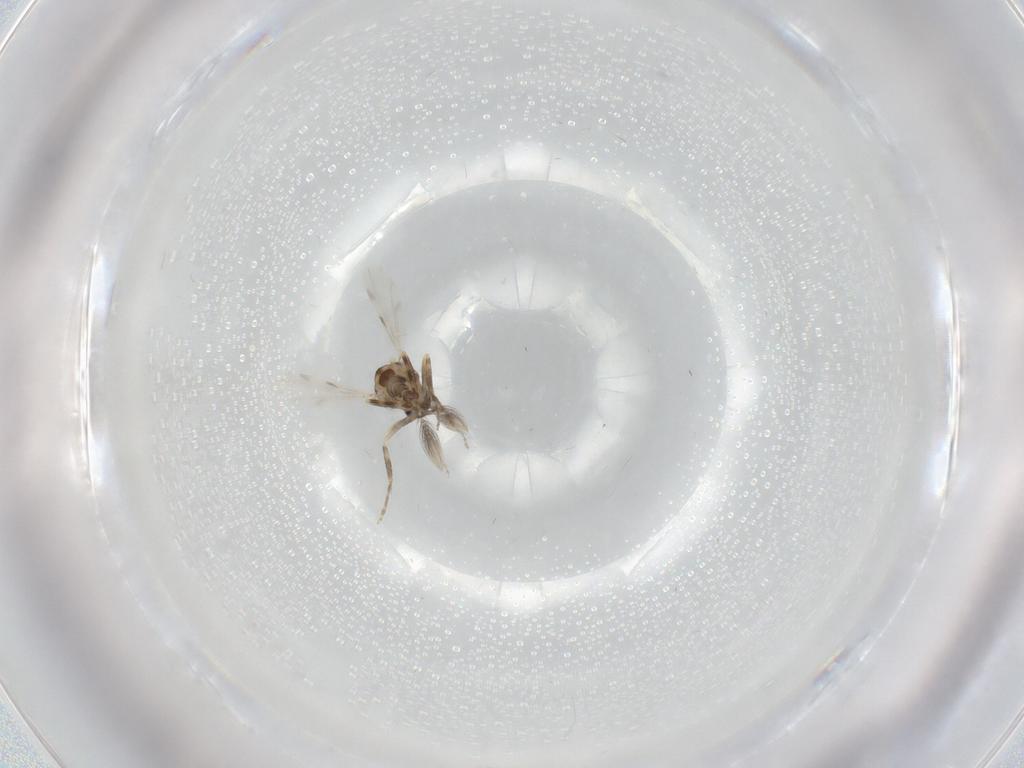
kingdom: Animalia
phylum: Arthropoda
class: Insecta
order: Diptera
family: Ceratopogonidae
